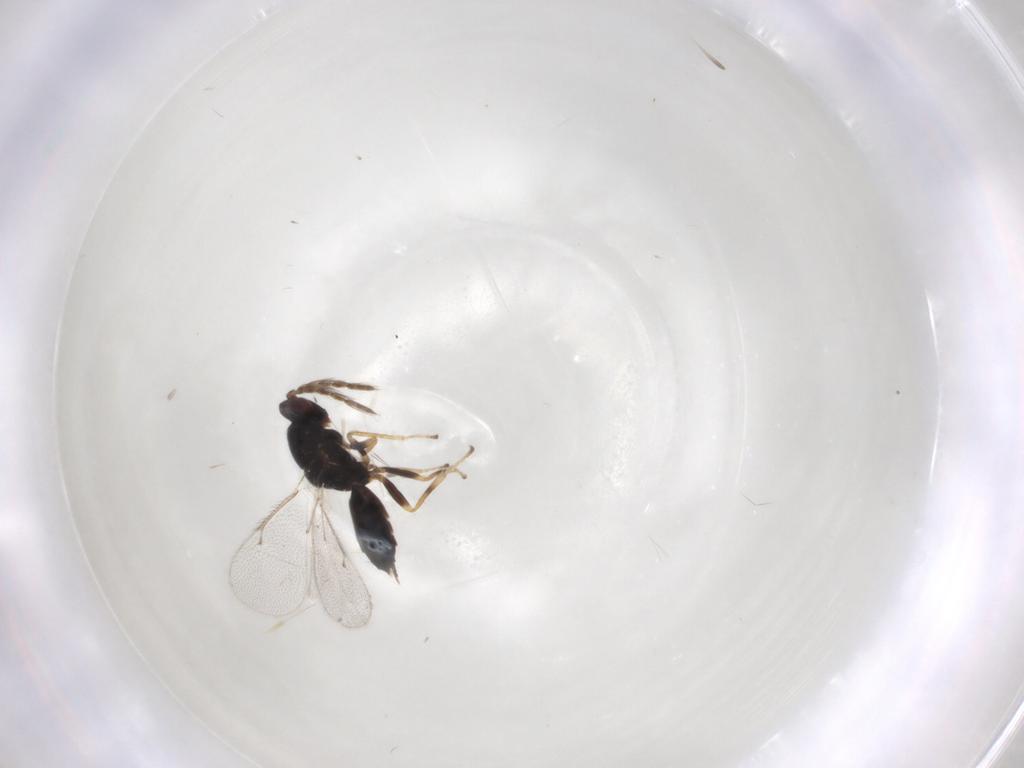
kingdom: Animalia
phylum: Arthropoda
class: Insecta
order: Hymenoptera
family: Eulophidae
